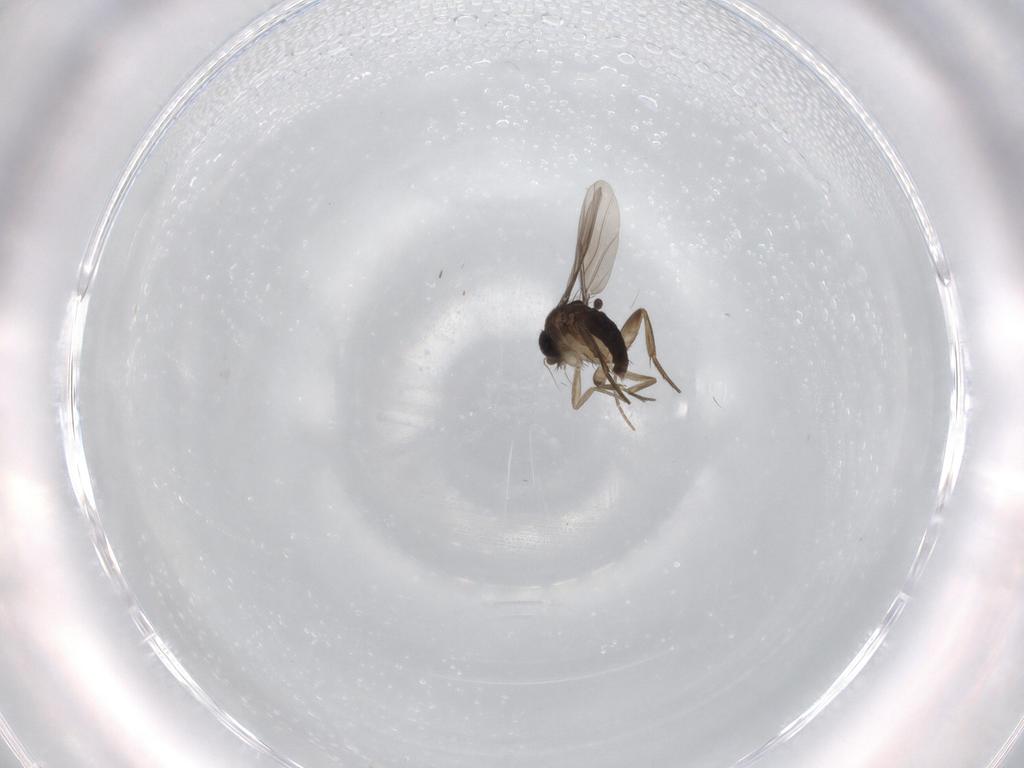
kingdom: Animalia
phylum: Arthropoda
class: Insecta
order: Diptera
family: Phoridae
